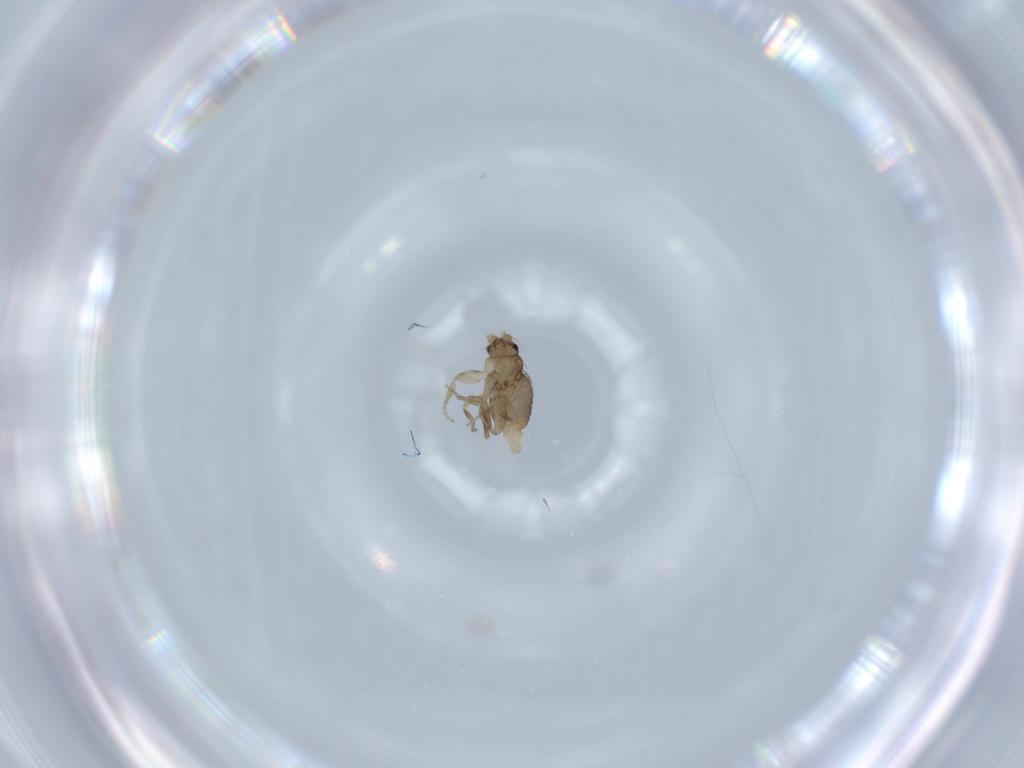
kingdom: Animalia
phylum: Arthropoda
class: Insecta
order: Diptera
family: Phoridae
